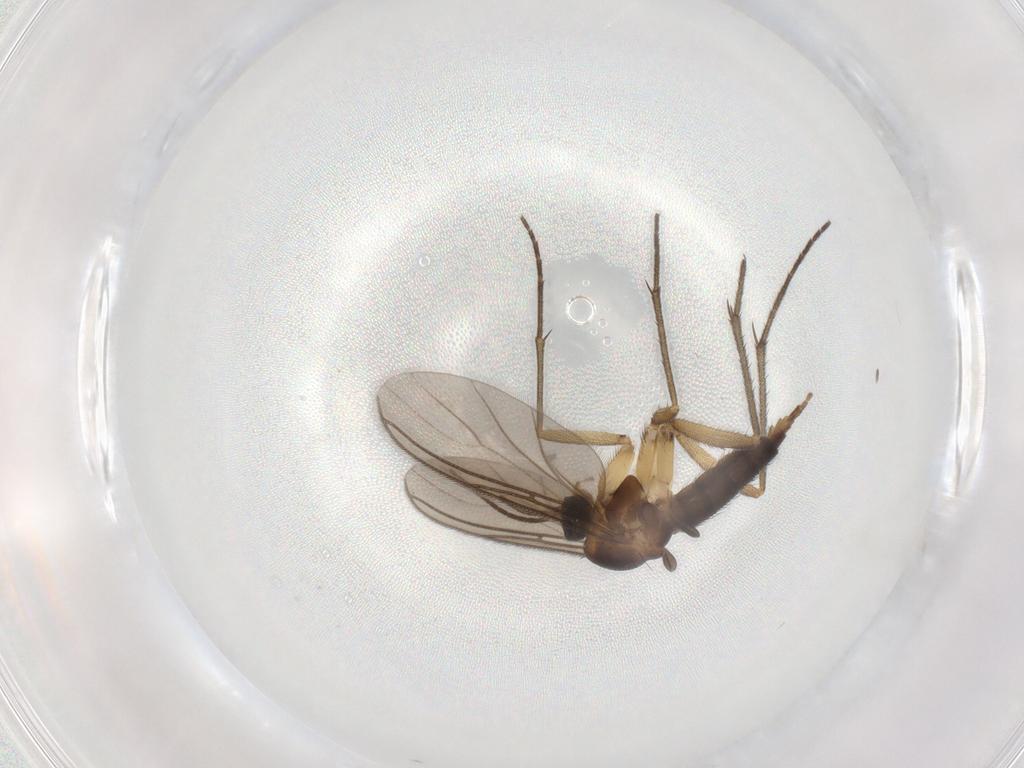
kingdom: Animalia
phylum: Arthropoda
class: Insecta
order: Diptera
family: Sciaridae
